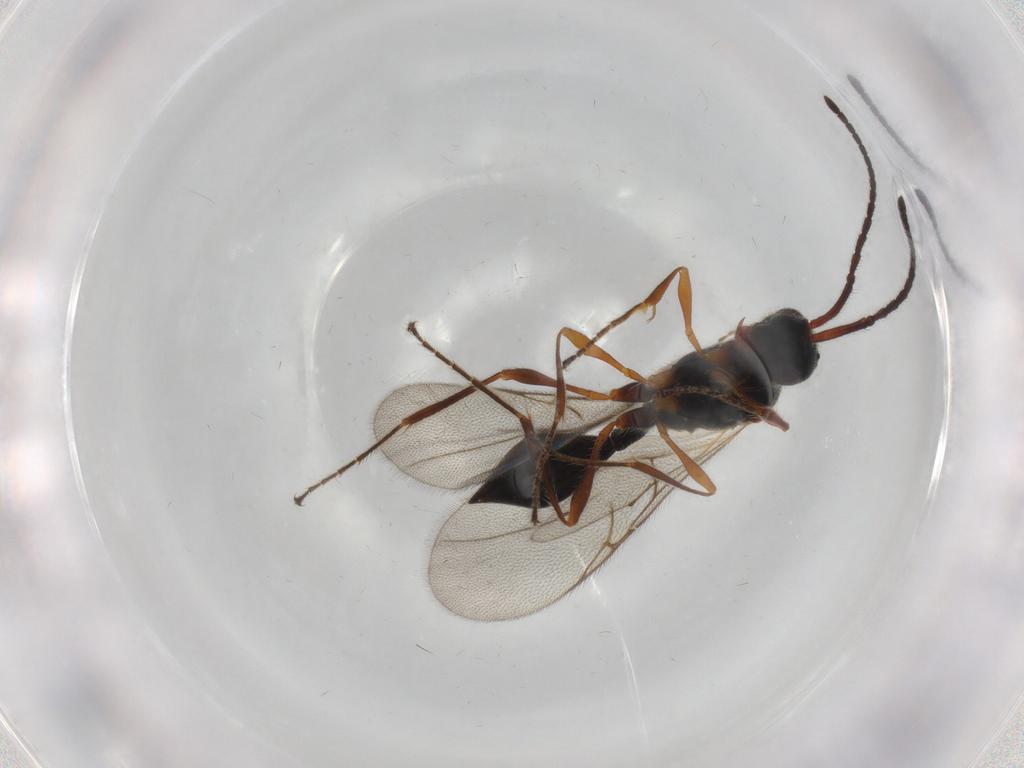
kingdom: Animalia
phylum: Arthropoda
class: Insecta
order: Hymenoptera
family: Diapriidae
